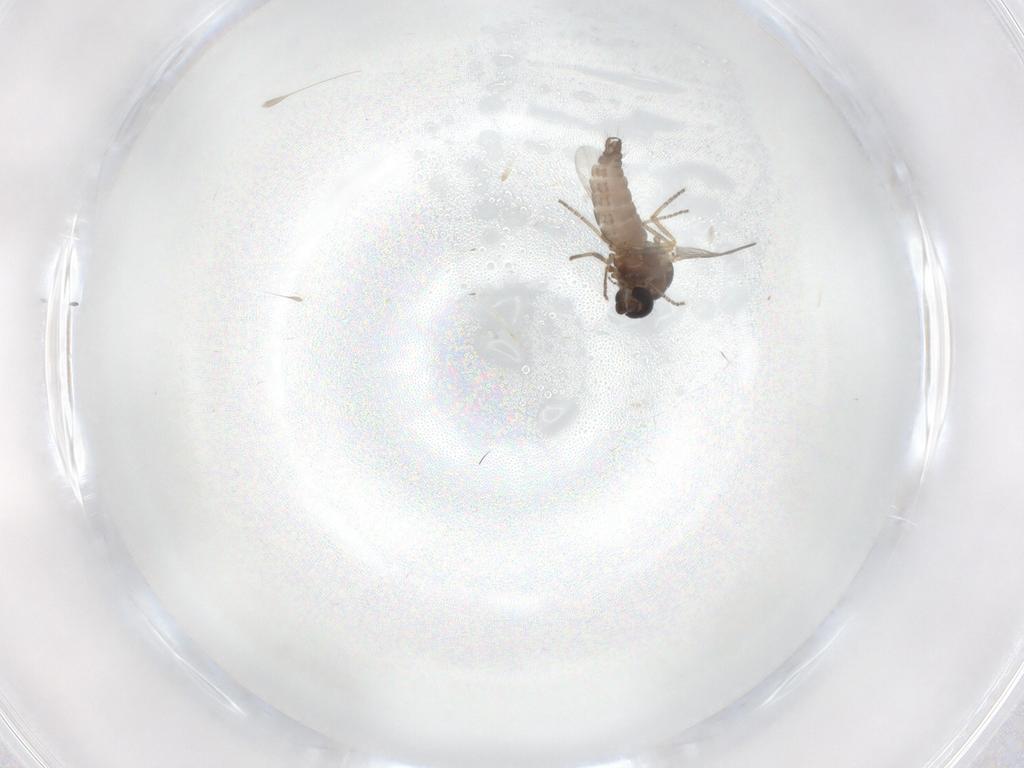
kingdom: Animalia
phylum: Arthropoda
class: Insecta
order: Diptera
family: Ceratopogonidae
